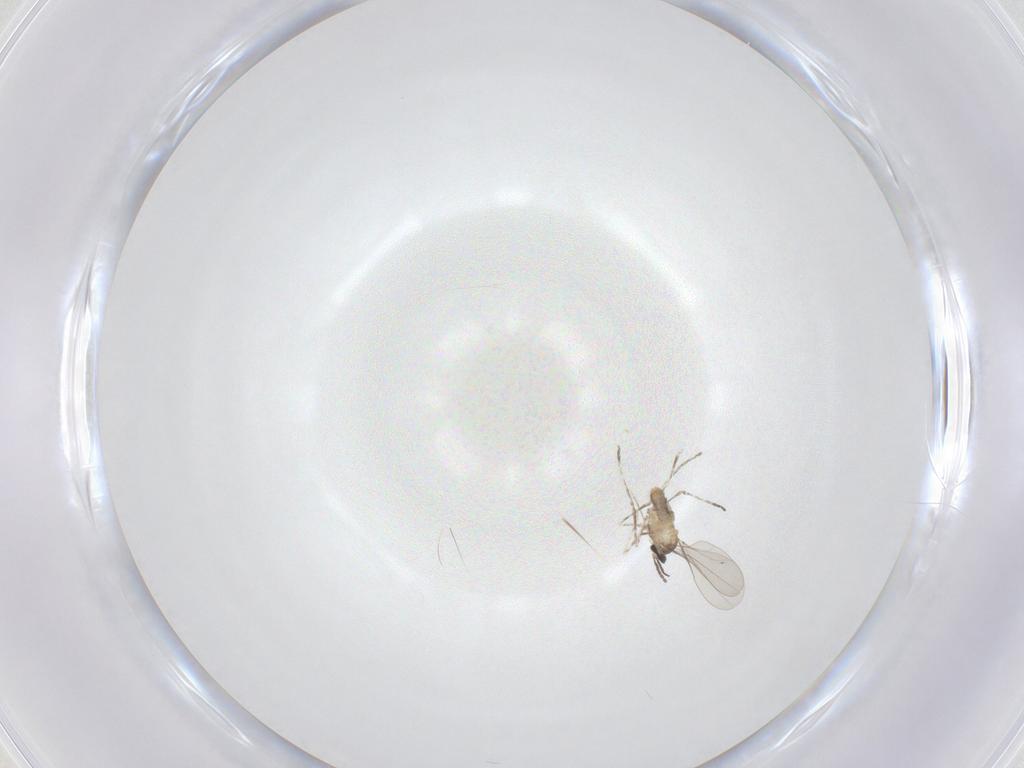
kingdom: Animalia
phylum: Arthropoda
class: Insecta
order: Diptera
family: Cecidomyiidae
